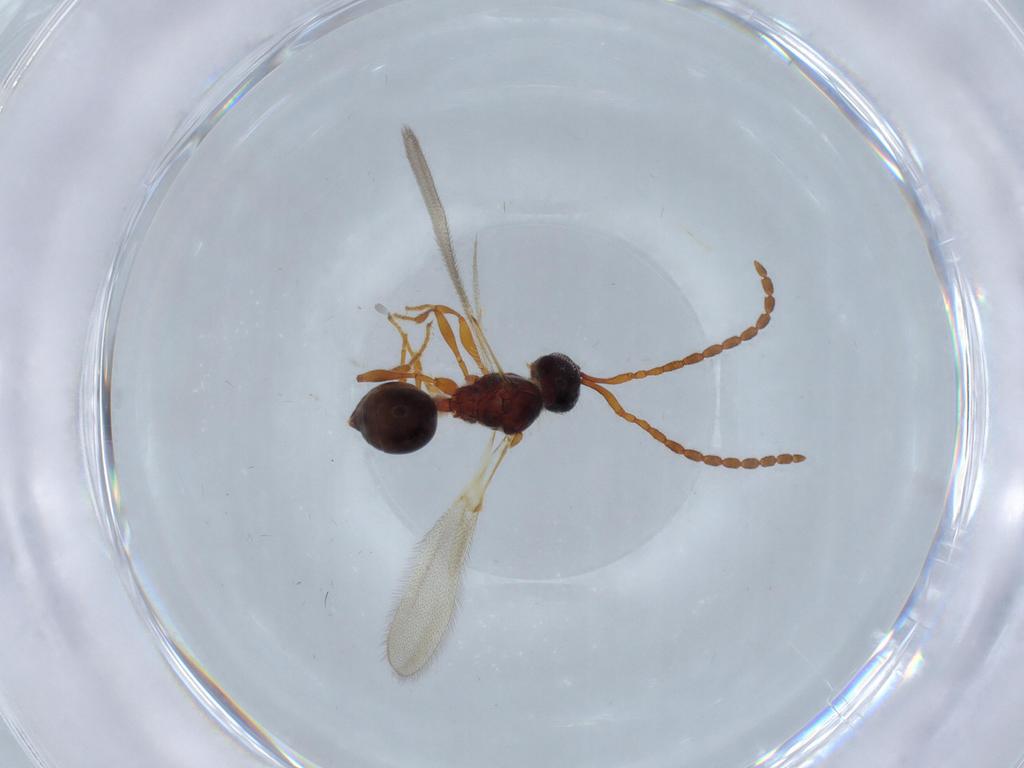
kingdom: Animalia
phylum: Arthropoda
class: Insecta
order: Hymenoptera
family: Diapriidae
